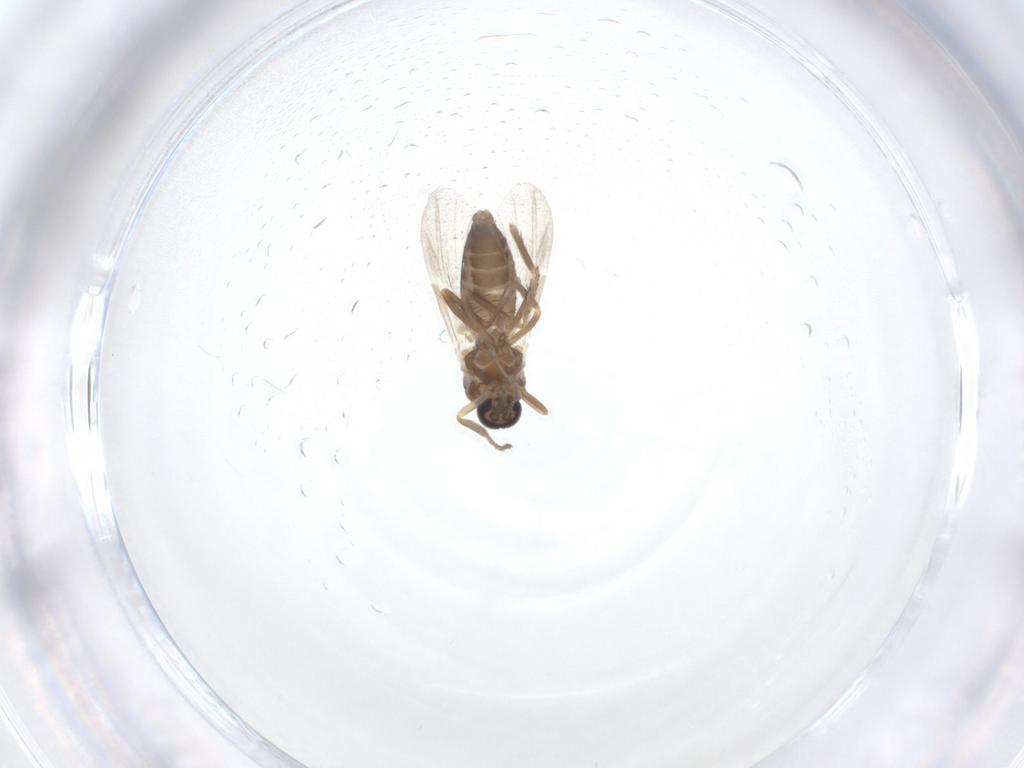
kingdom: Animalia
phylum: Arthropoda
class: Insecta
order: Diptera
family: Ceratopogonidae
